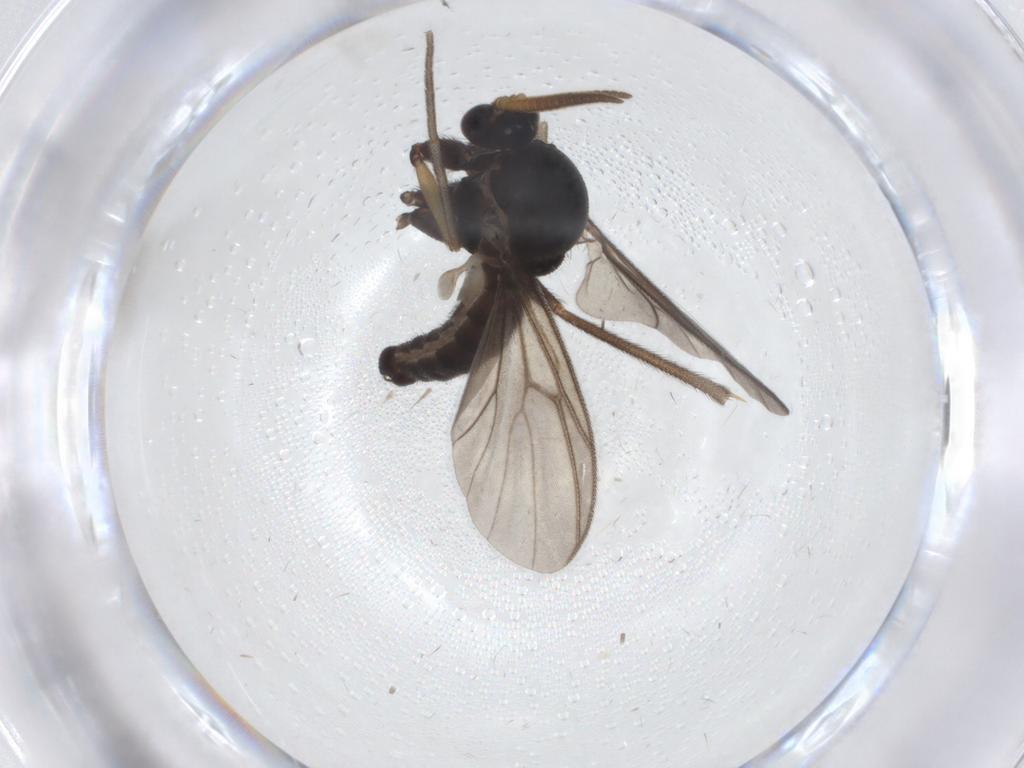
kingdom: Animalia
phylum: Arthropoda
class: Insecta
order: Diptera
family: Hybotidae
